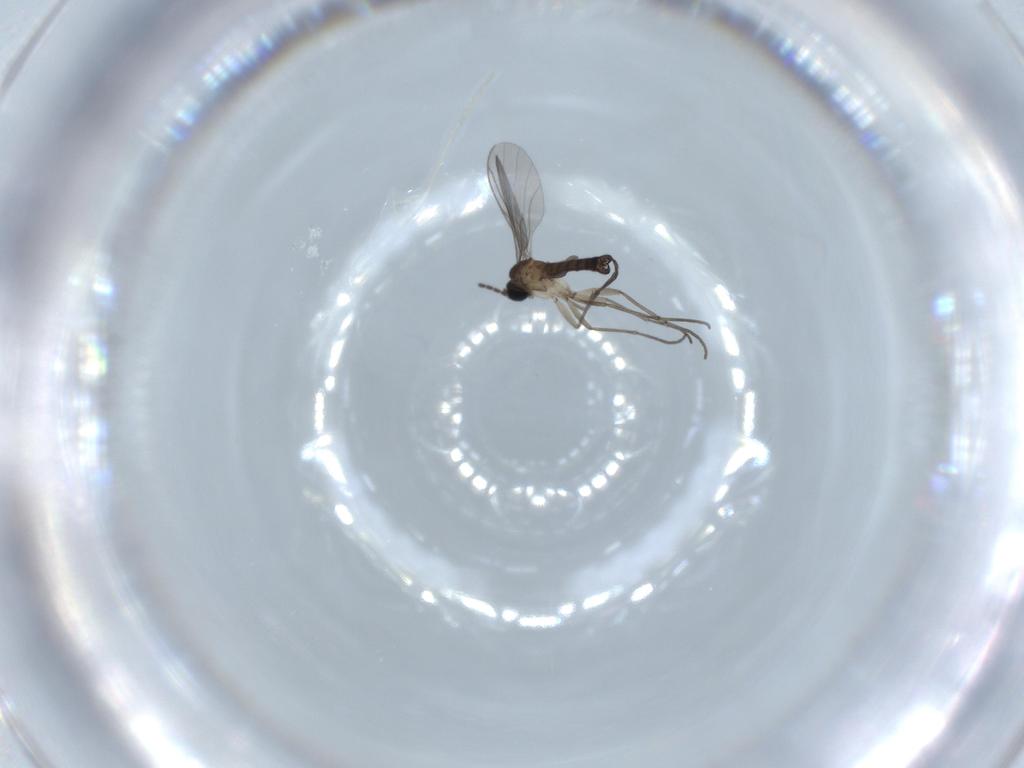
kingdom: Animalia
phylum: Arthropoda
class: Insecta
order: Diptera
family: Sciaridae
